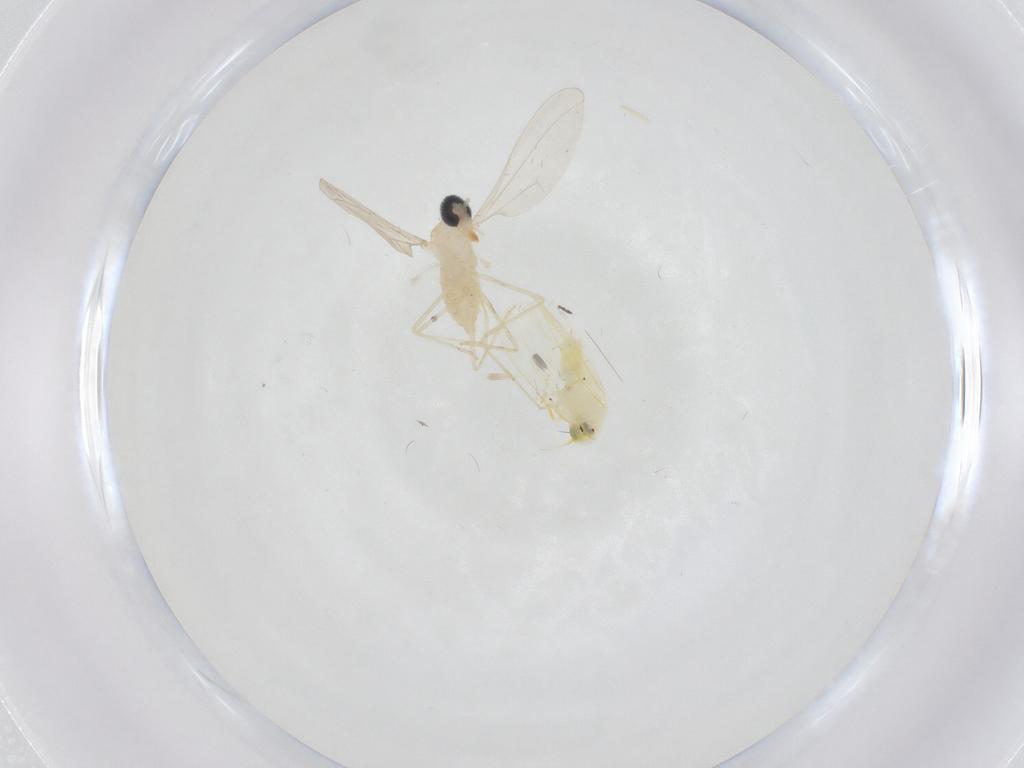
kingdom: Animalia
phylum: Arthropoda
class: Insecta
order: Hemiptera
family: Aleyrodidae
